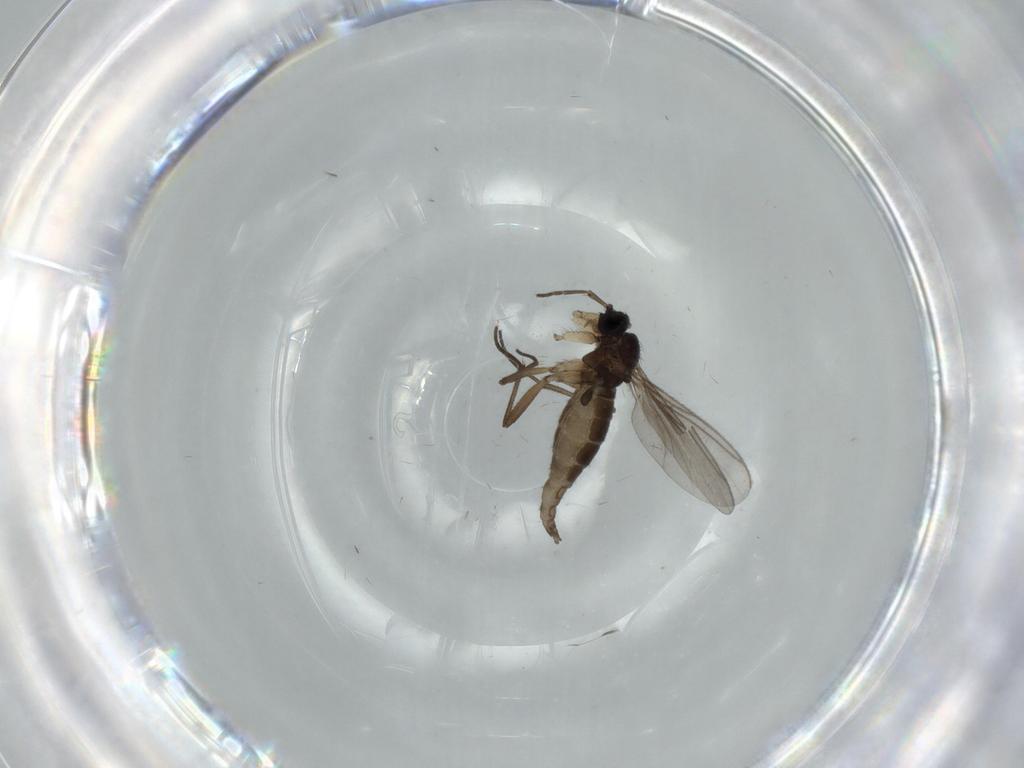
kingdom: Animalia
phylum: Arthropoda
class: Insecta
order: Diptera
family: Sciaridae
